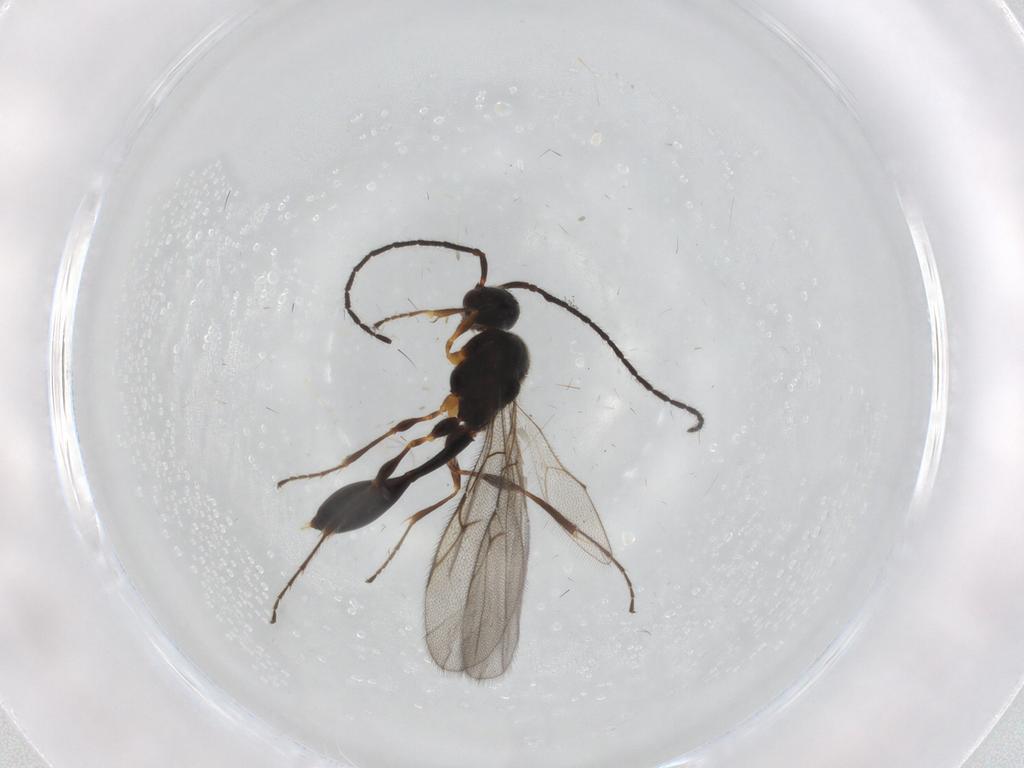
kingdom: Animalia
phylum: Arthropoda
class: Insecta
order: Hymenoptera
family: Diapriidae
